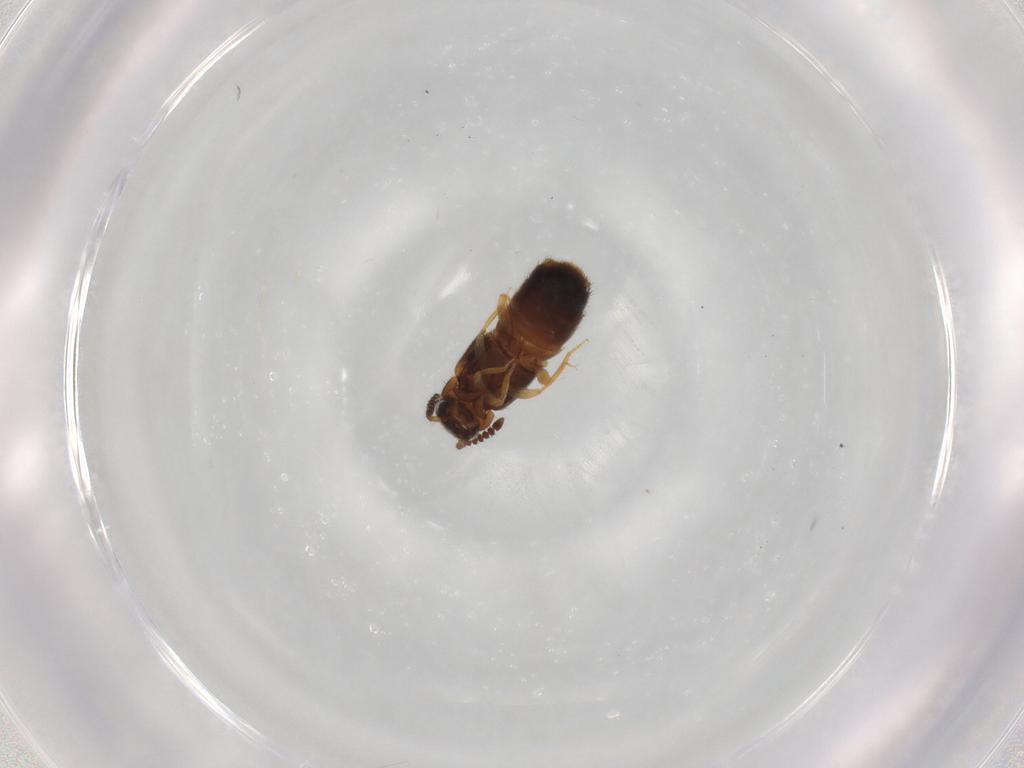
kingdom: Animalia
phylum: Arthropoda
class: Insecta
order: Coleoptera
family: Staphylinidae
